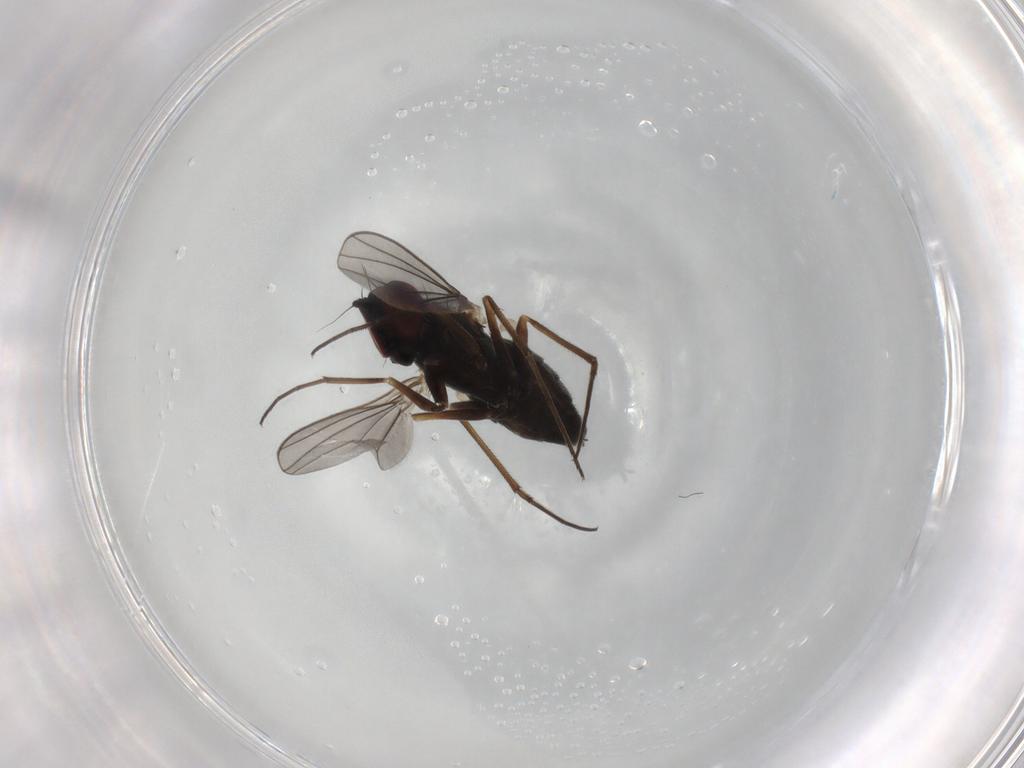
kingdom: Animalia
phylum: Arthropoda
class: Insecta
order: Diptera
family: Dolichopodidae
